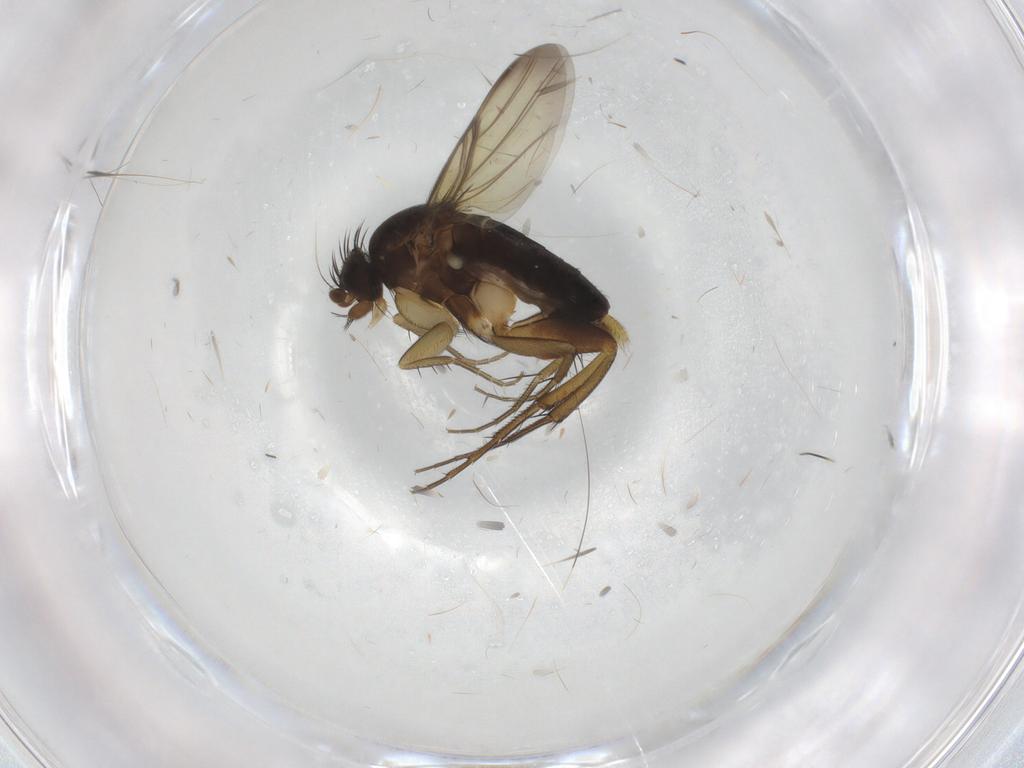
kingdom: Animalia
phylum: Arthropoda
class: Insecta
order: Diptera
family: Phoridae
